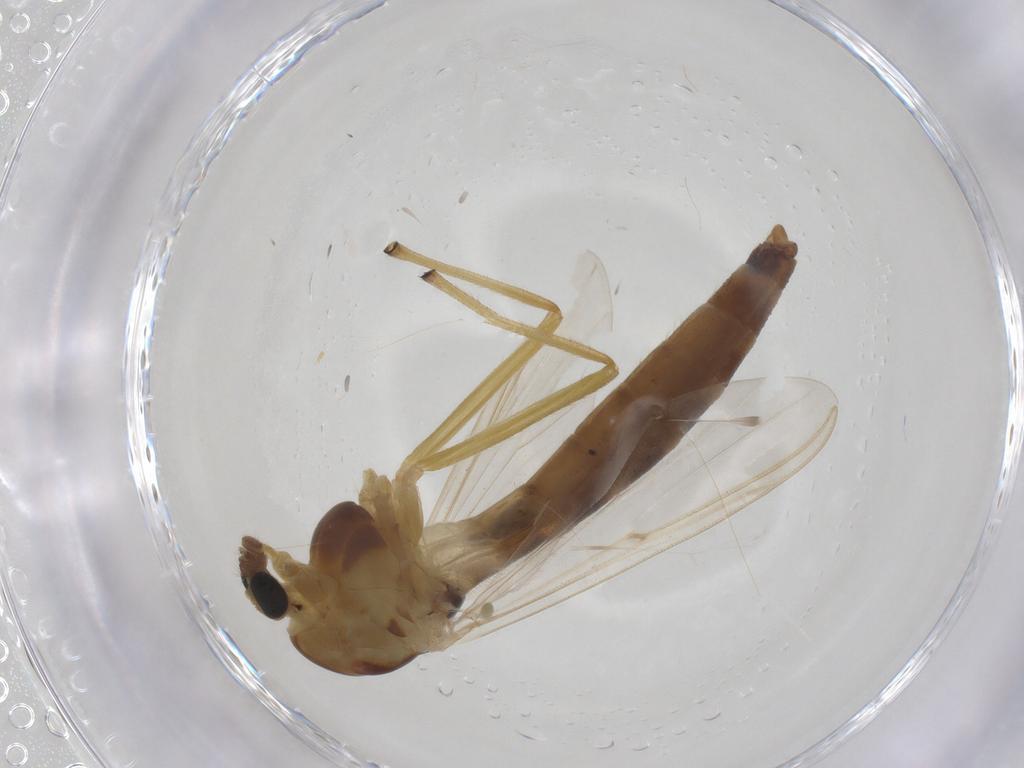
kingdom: Animalia
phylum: Arthropoda
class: Insecta
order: Diptera
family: Chironomidae
